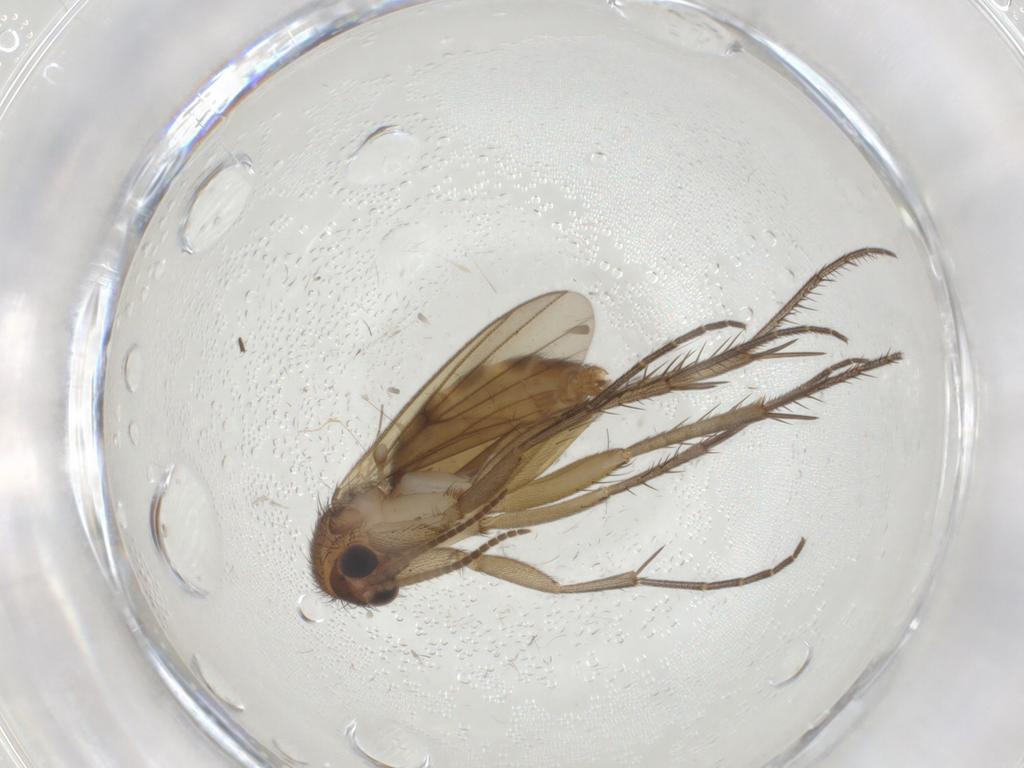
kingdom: Animalia
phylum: Arthropoda
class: Insecta
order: Diptera
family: Mycetophilidae
